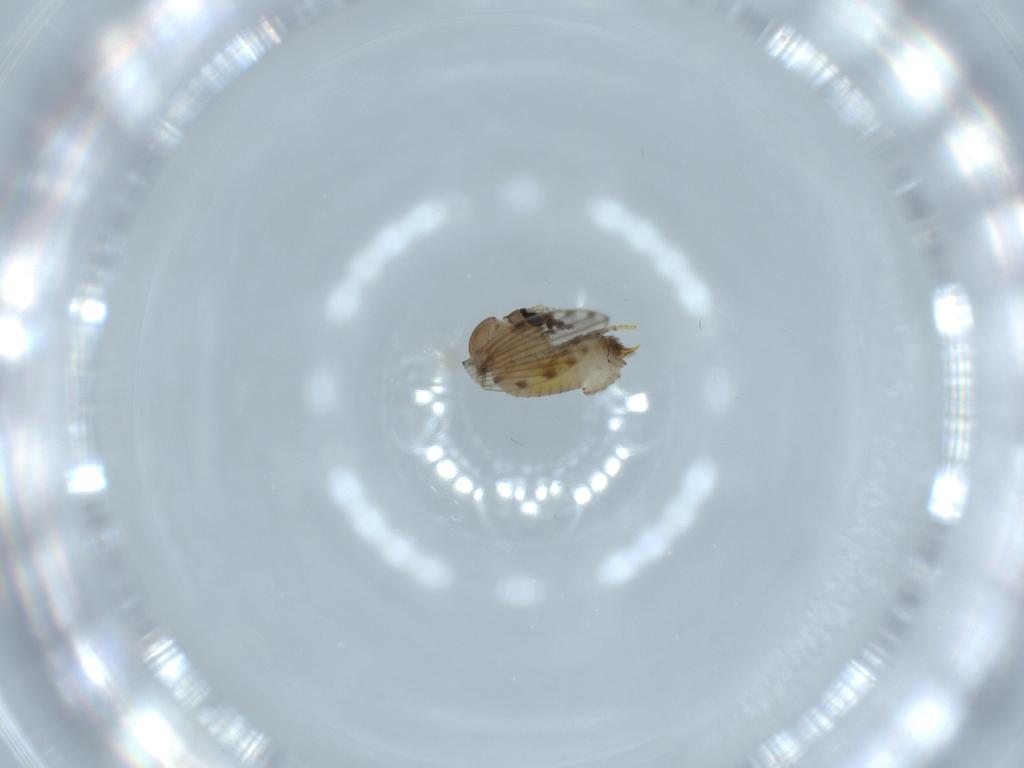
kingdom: Animalia
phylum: Arthropoda
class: Insecta
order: Diptera
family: Psychodidae
